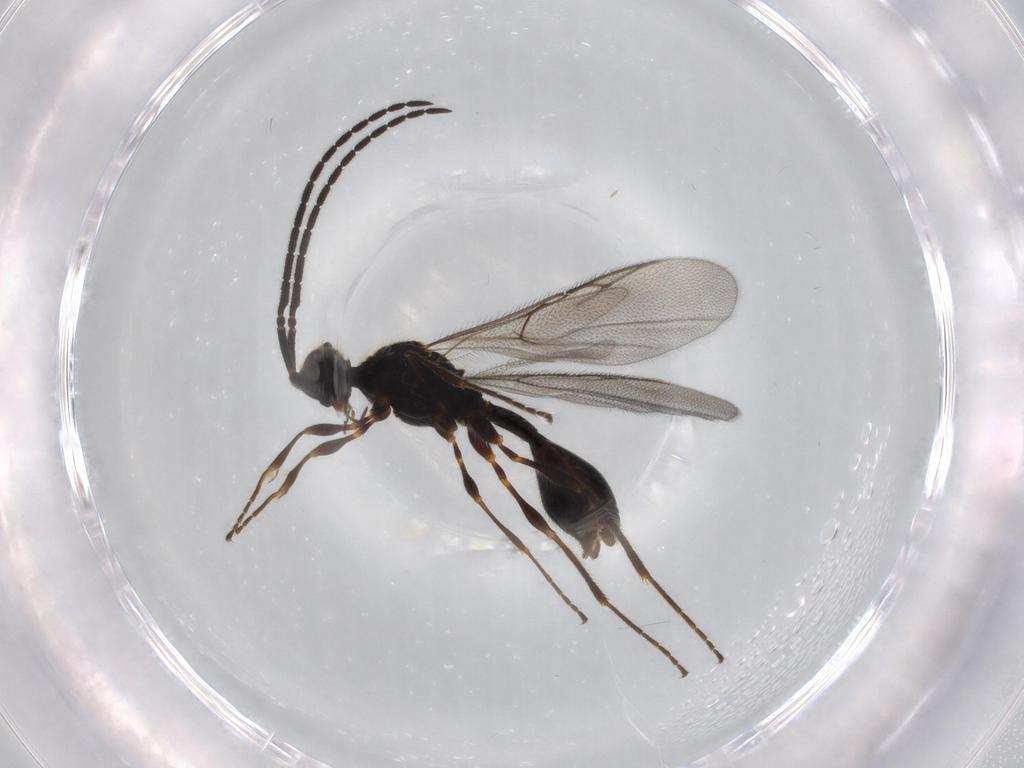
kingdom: Animalia
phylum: Arthropoda
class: Insecta
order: Hymenoptera
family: Diapriidae
